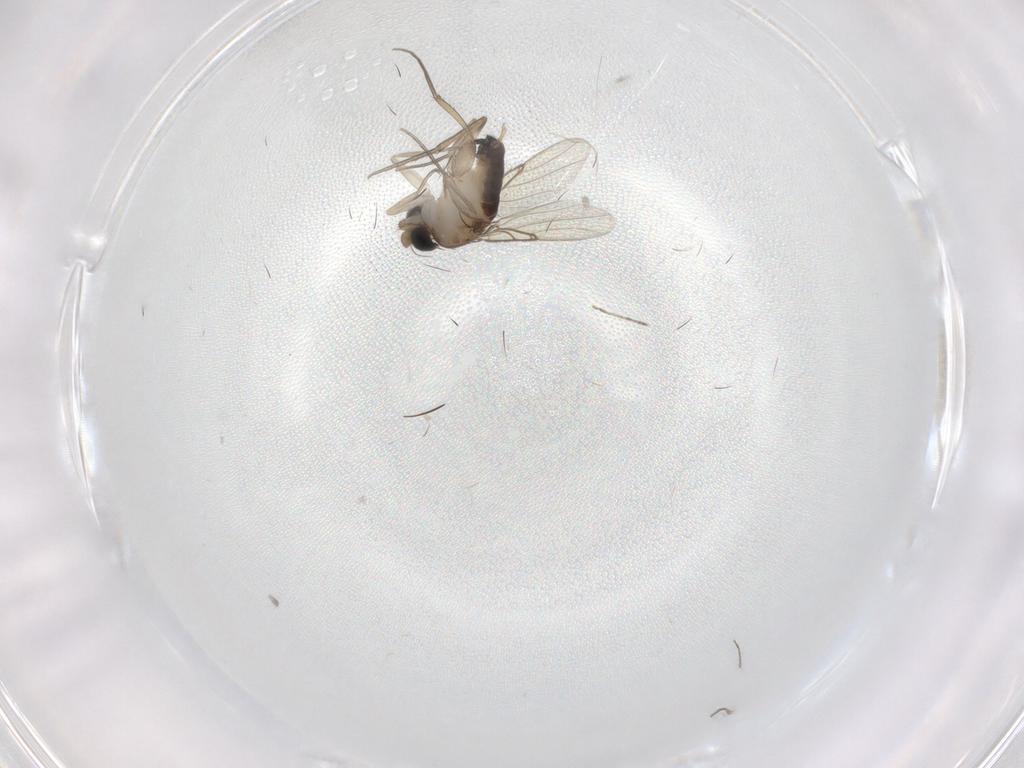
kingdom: Animalia
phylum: Arthropoda
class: Insecta
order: Diptera
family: Phoridae
